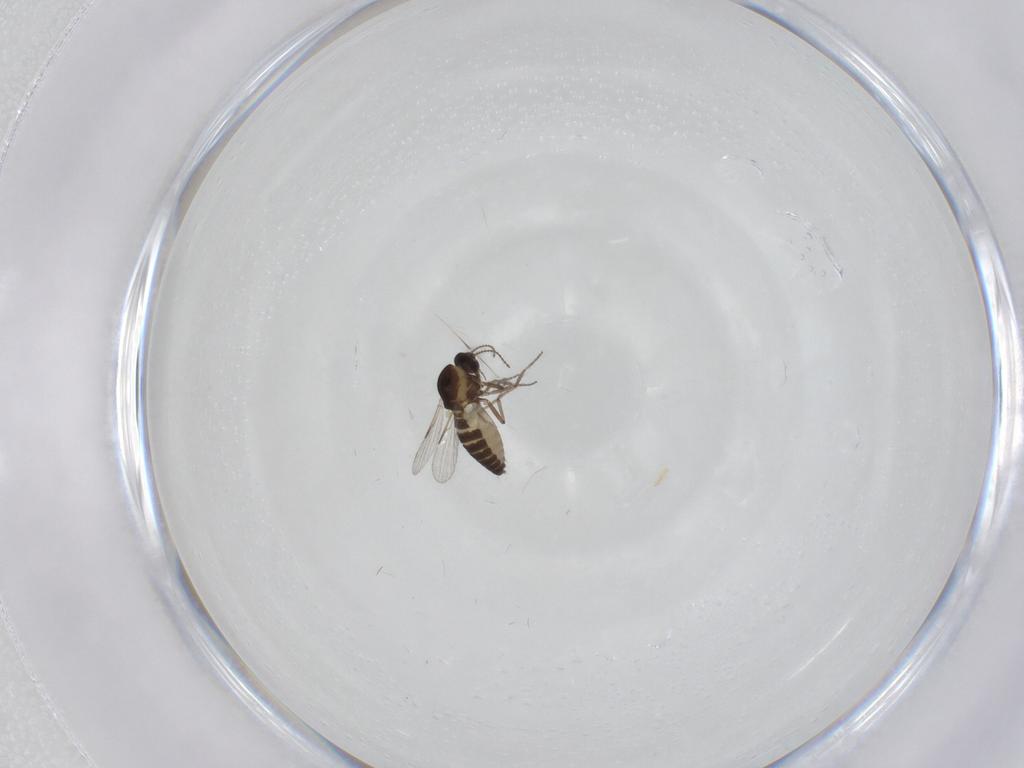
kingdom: Animalia
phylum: Arthropoda
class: Insecta
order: Diptera
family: Ceratopogonidae
